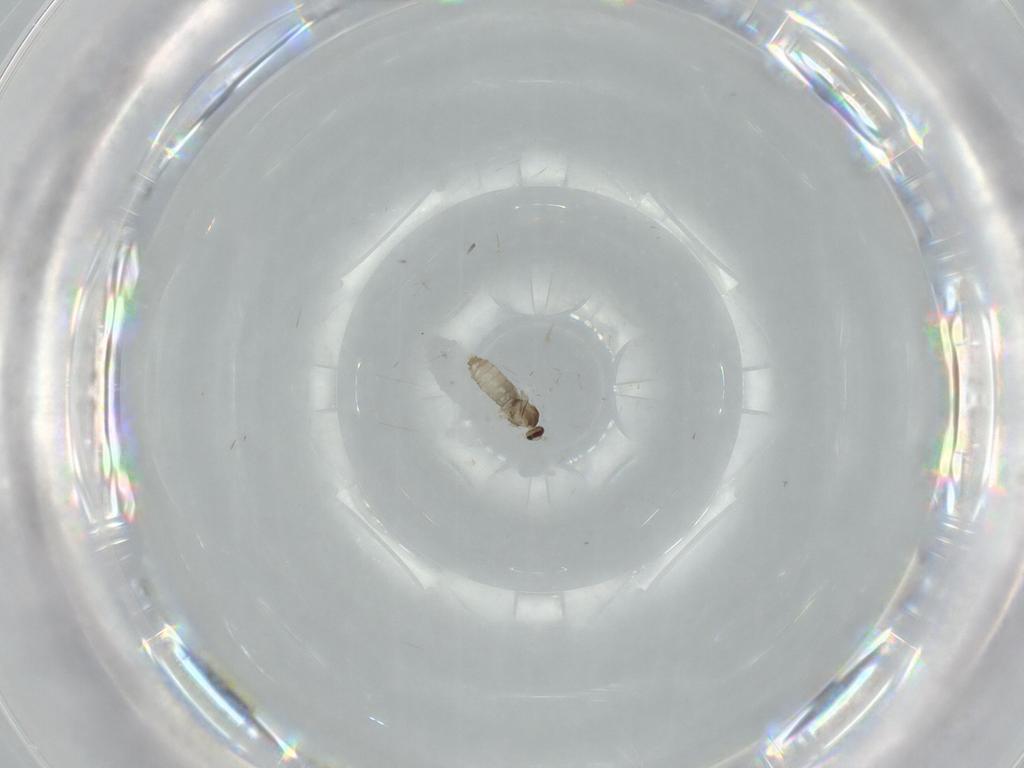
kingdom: Animalia
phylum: Arthropoda
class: Insecta
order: Diptera
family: Cecidomyiidae
